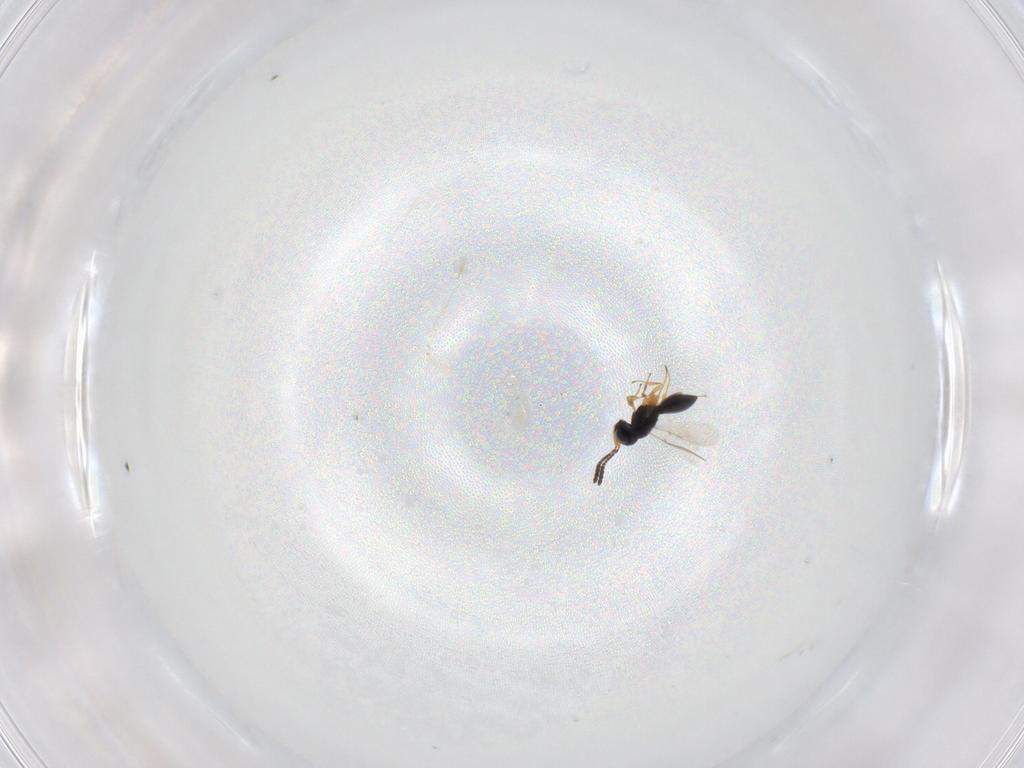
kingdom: Animalia
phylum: Arthropoda
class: Insecta
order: Hymenoptera
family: Scelionidae
